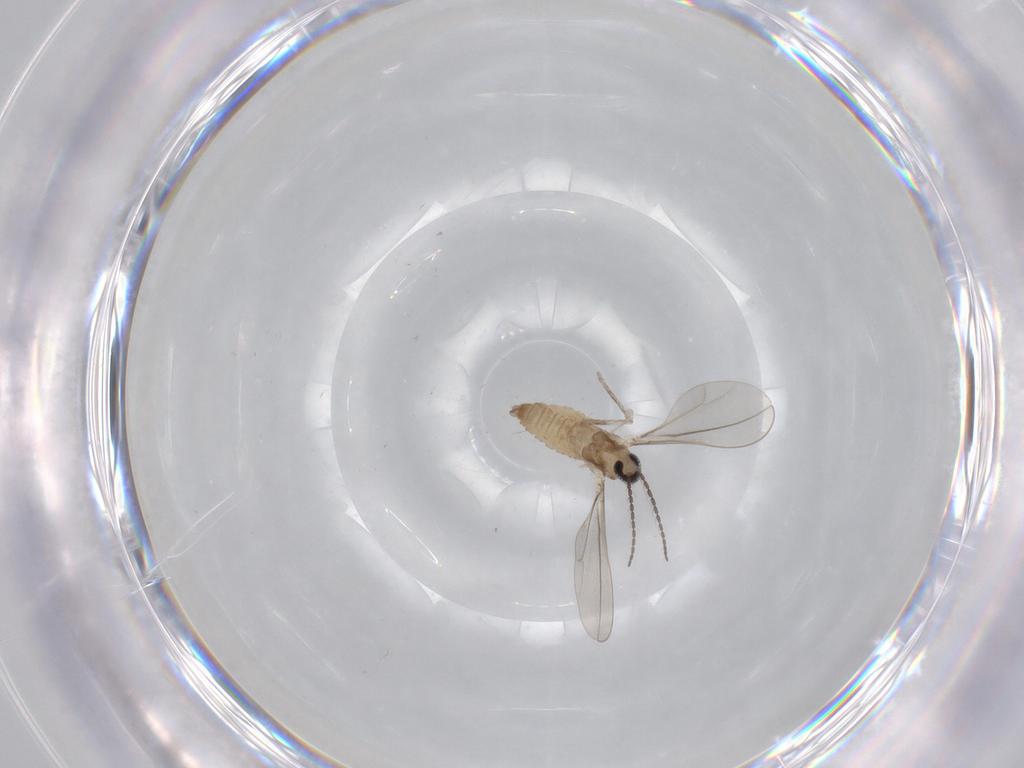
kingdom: Animalia
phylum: Arthropoda
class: Insecta
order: Diptera
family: Cecidomyiidae
